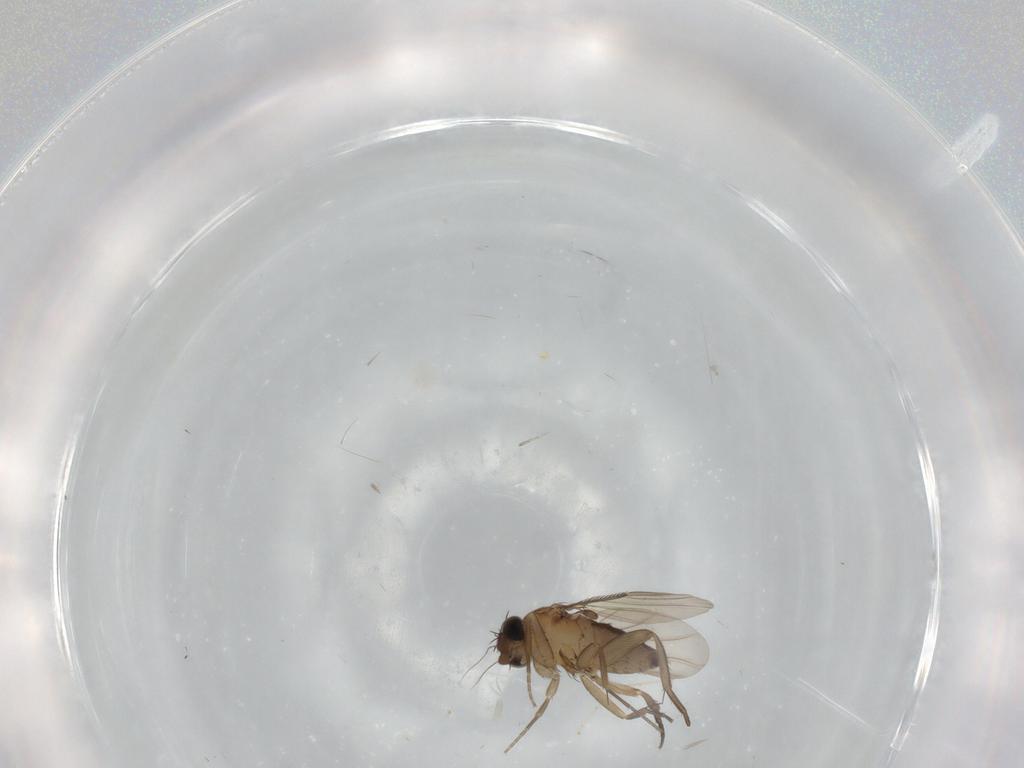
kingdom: Animalia
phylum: Arthropoda
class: Insecta
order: Diptera
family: Phoridae
